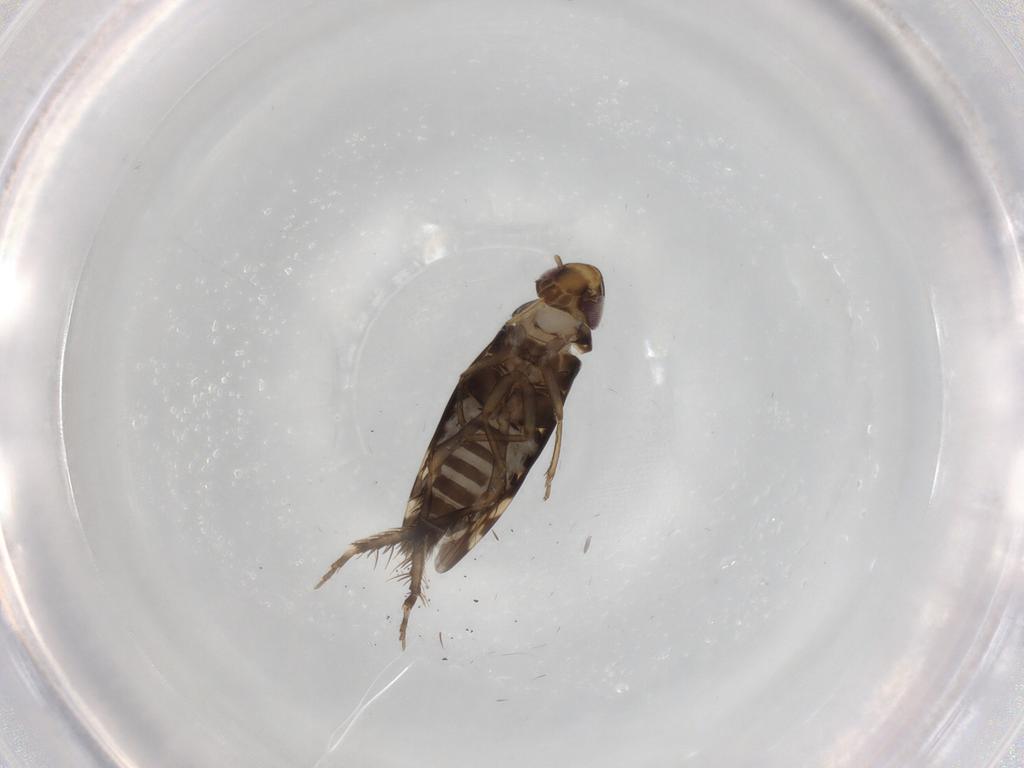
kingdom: Animalia
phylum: Arthropoda
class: Insecta
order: Hemiptera
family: Cicadellidae
